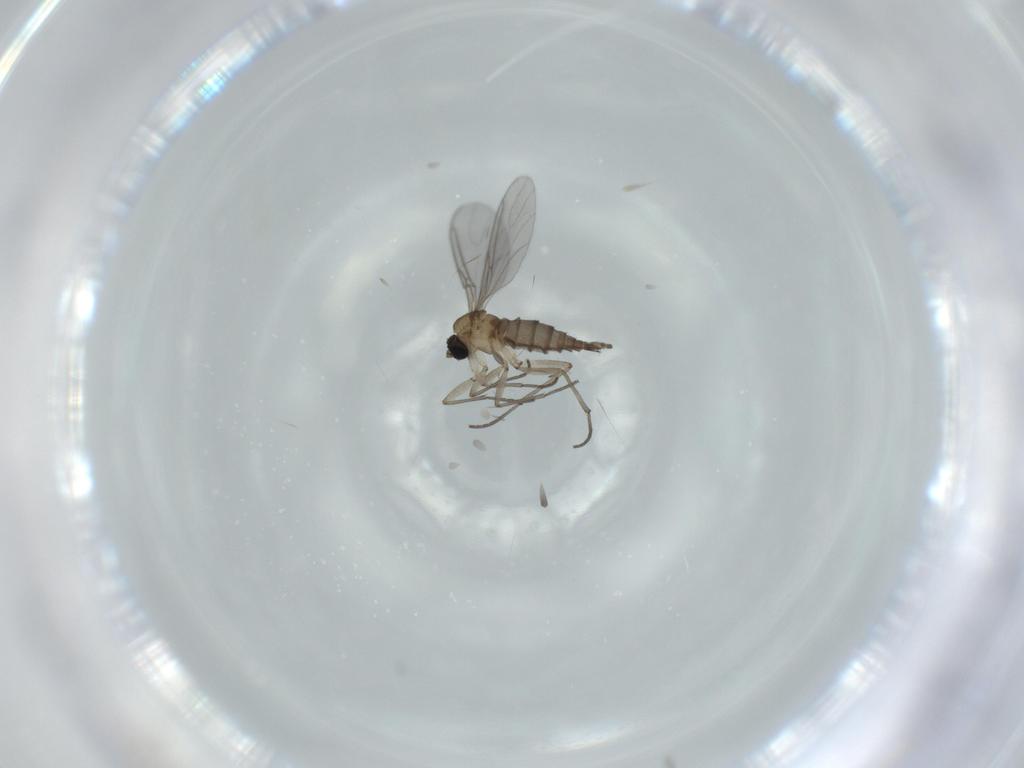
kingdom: Animalia
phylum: Arthropoda
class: Insecta
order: Diptera
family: Sciaridae
